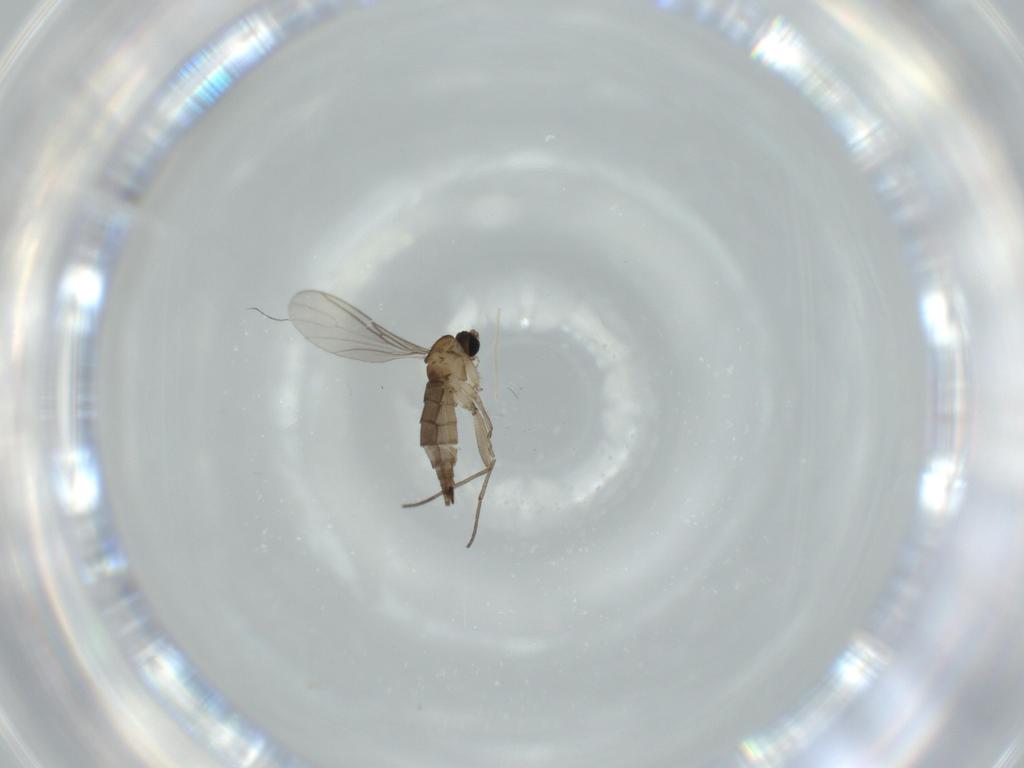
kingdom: Animalia
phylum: Arthropoda
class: Insecta
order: Diptera
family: Sciaridae
